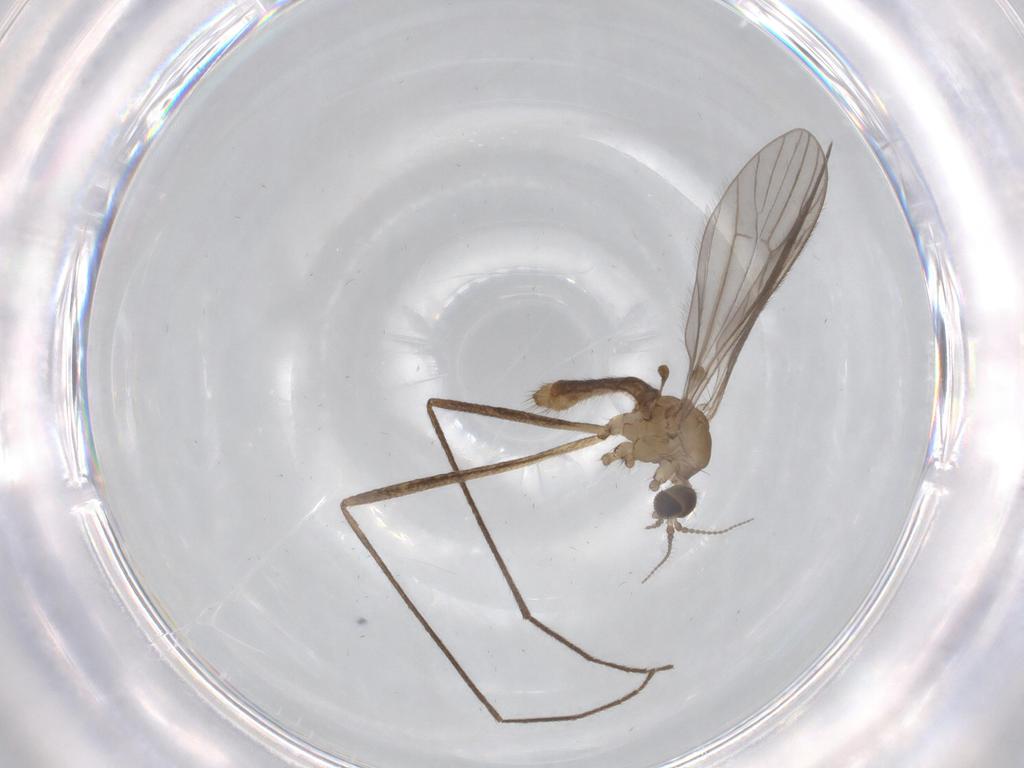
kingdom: Animalia
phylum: Arthropoda
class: Insecta
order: Diptera
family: Limoniidae
